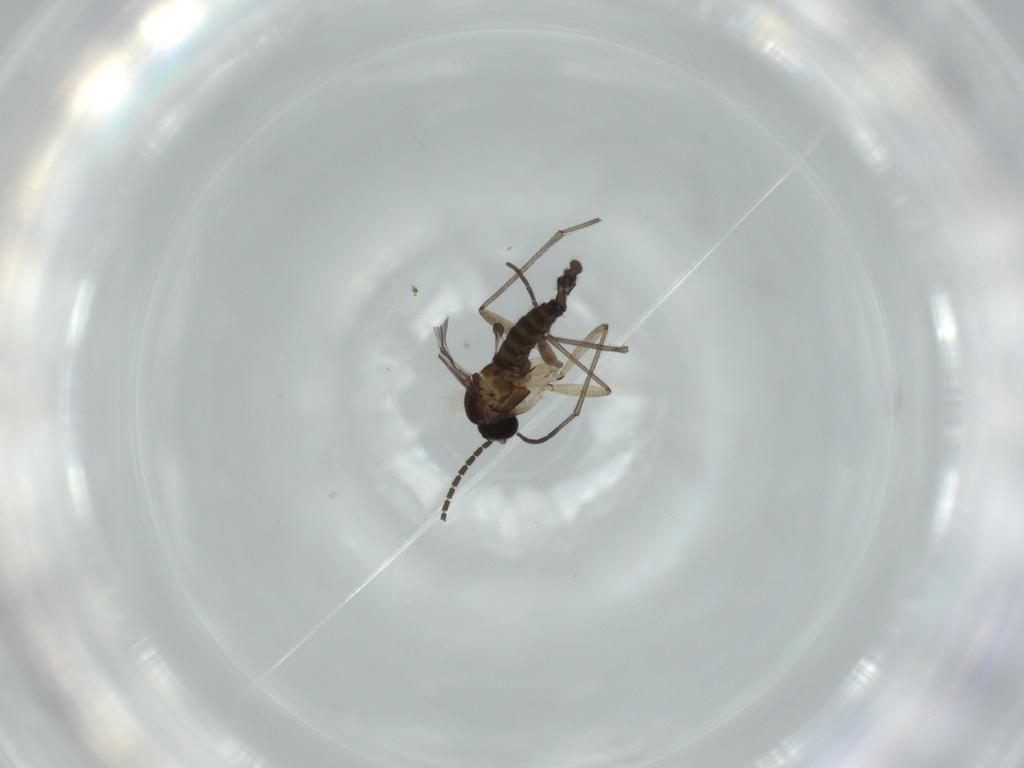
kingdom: Animalia
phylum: Arthropoda
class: Insecta
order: Diptera
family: Sciaridae
